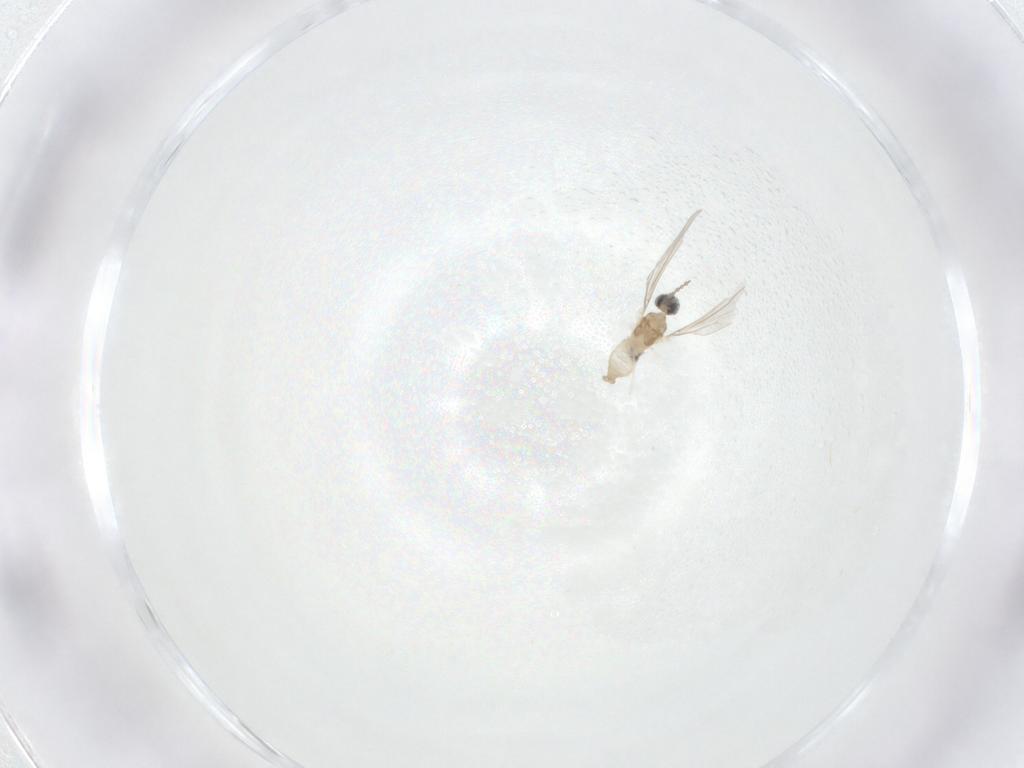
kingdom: Animalia
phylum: Arthropoda
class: Insecta
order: Diptera
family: Cecidomyiidae
